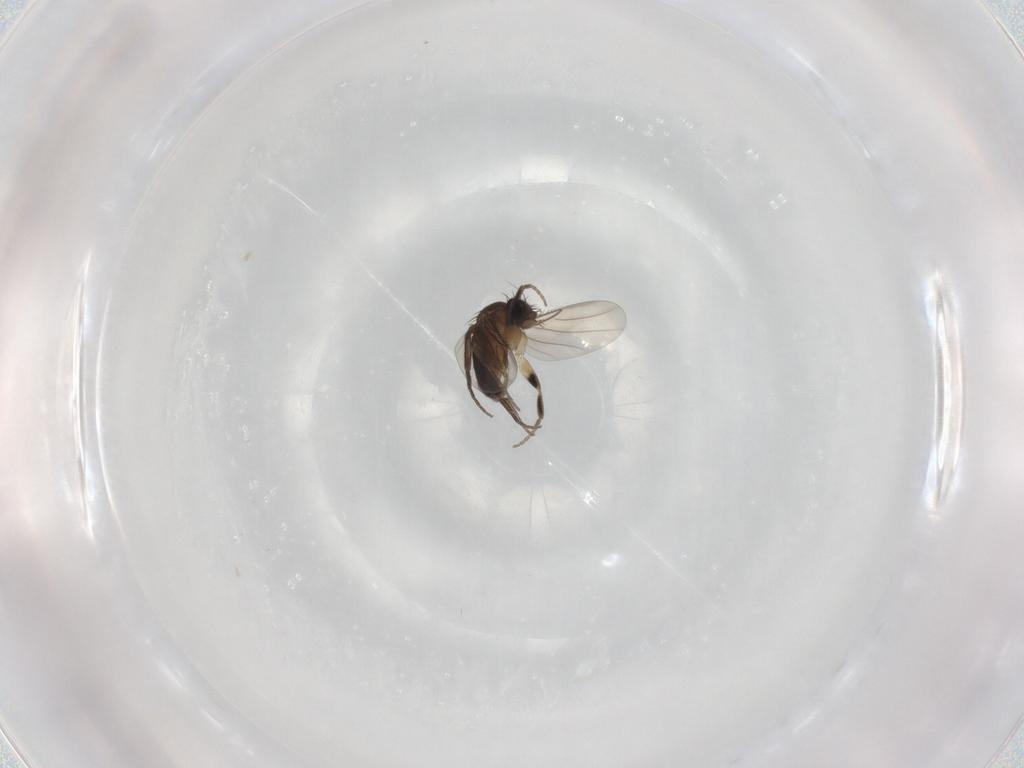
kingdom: Animalia
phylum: Arthropoda
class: Insecta
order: Diptera
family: Phoridae
